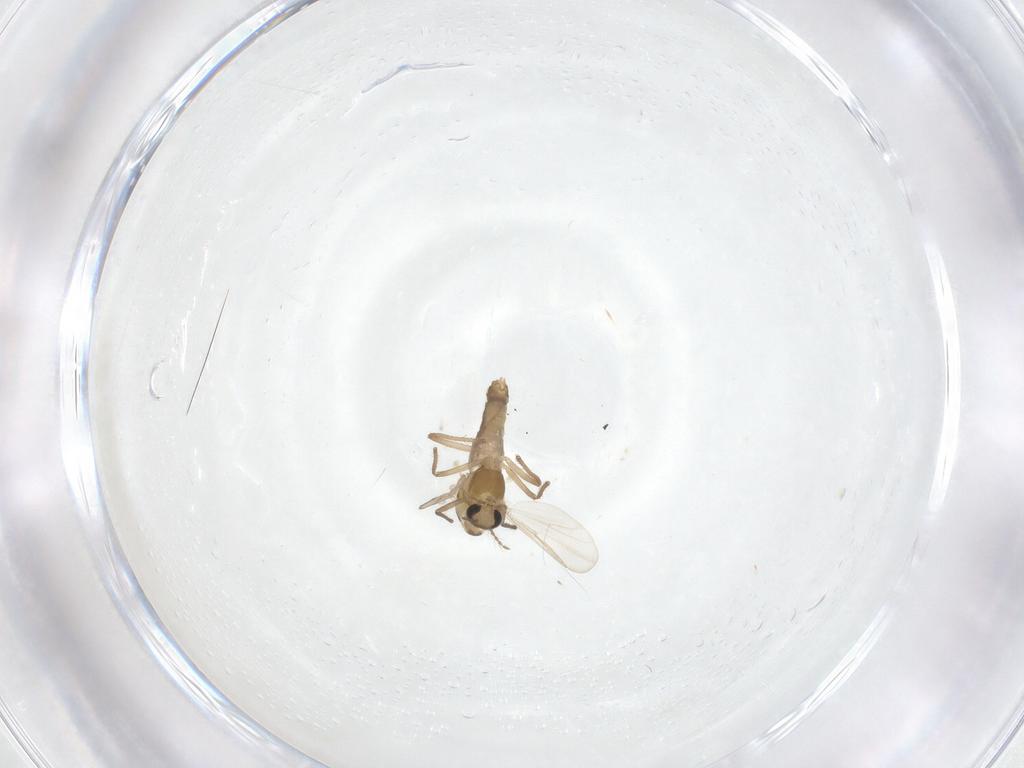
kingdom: Animalia
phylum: Arthropoda
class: Insecta
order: Diptera
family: Chironomidae
